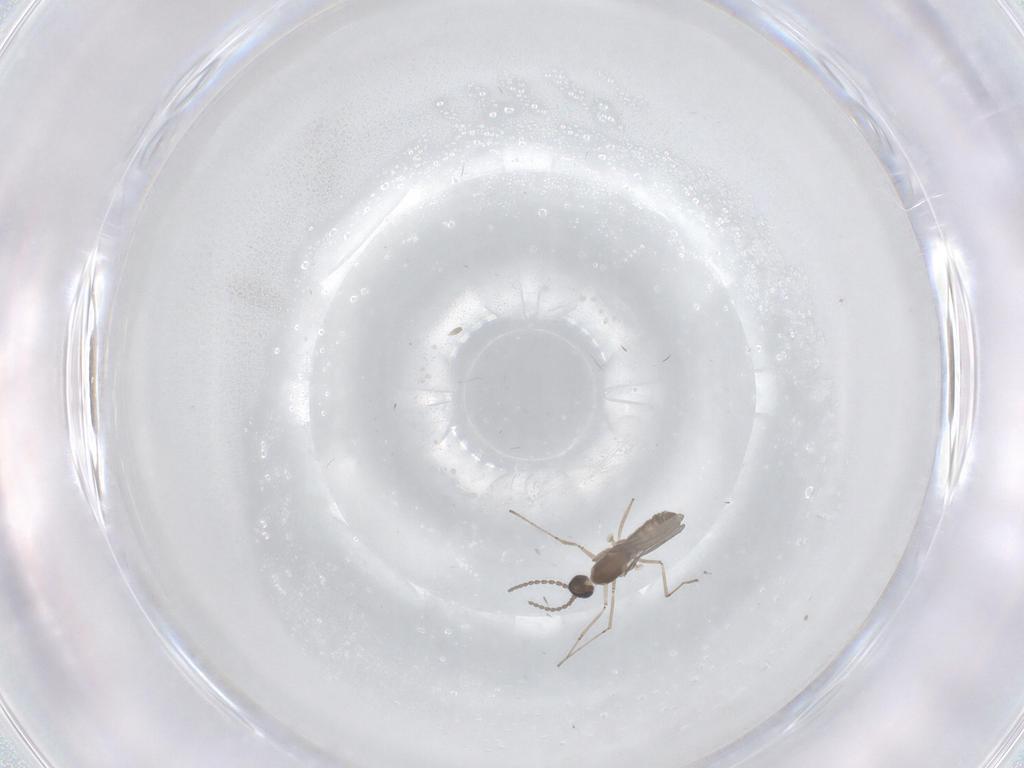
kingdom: Animalia
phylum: Arthropoda
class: Insecta
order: Diptera
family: Cecidomyiidae
